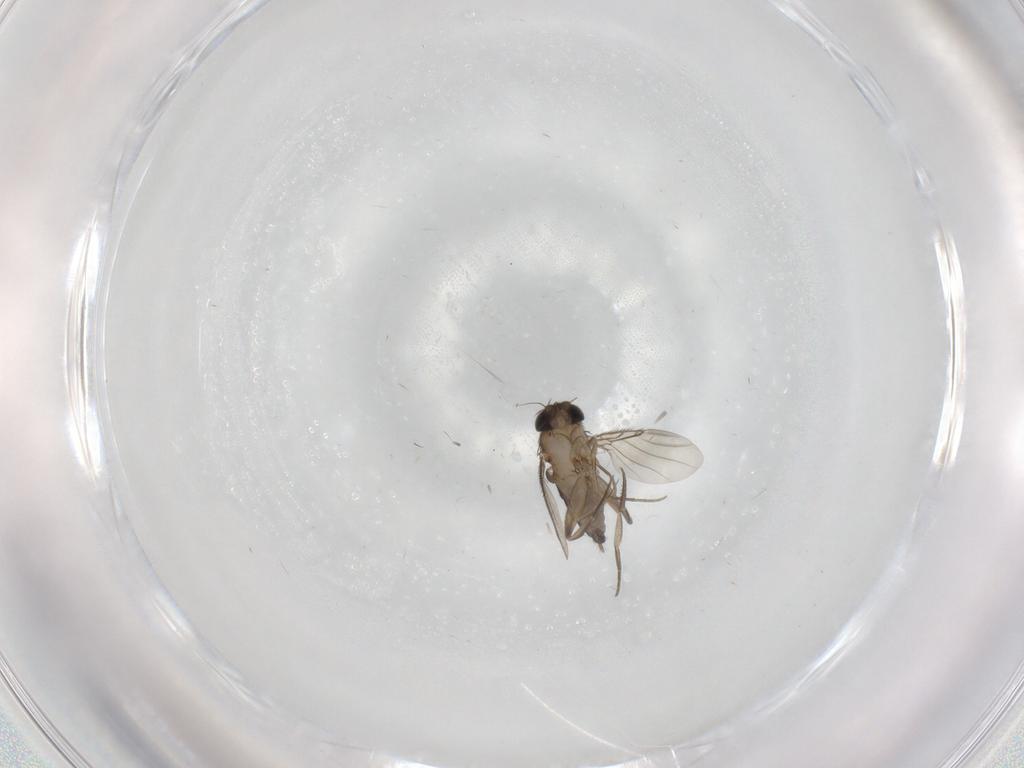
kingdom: Animalia
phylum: Arthropoda
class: Insecta
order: Diptera
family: Phoridae
